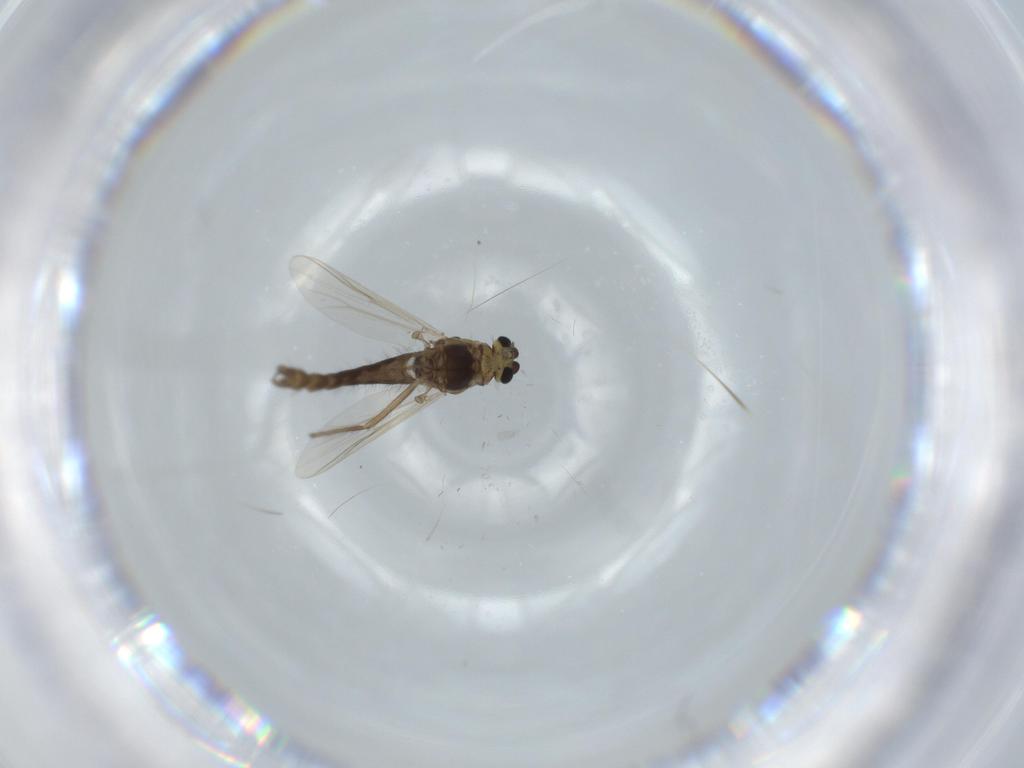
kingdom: Animalia
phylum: Arthropoda
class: Insecta
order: Diptera
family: Chironomidae
